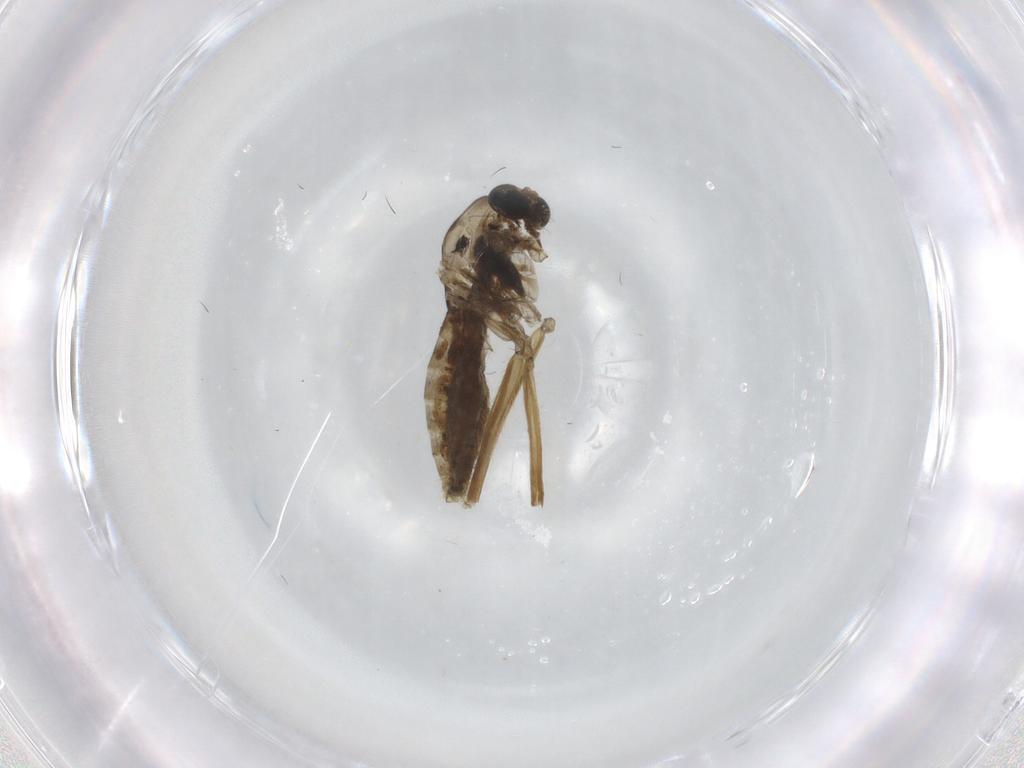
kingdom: Animalia
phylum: Arthropoda
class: Insecta
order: Diptera
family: Psychodidae
